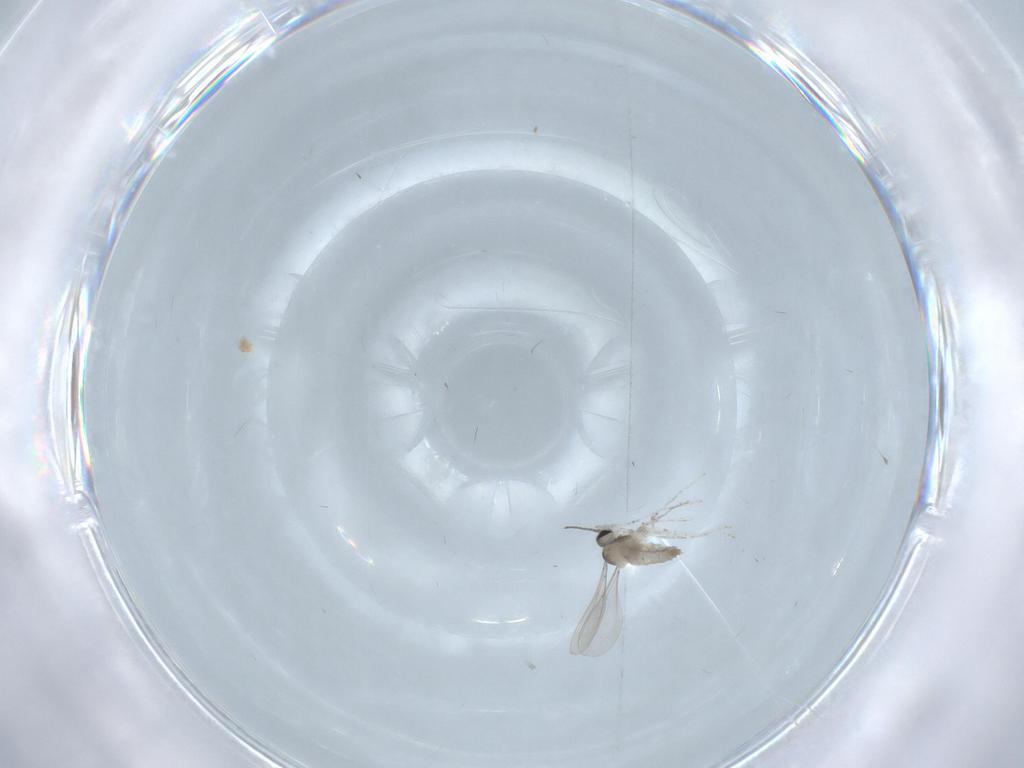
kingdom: Animalia
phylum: Arthropoda
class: Insecta
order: Diptera
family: Cecidomyiidae
